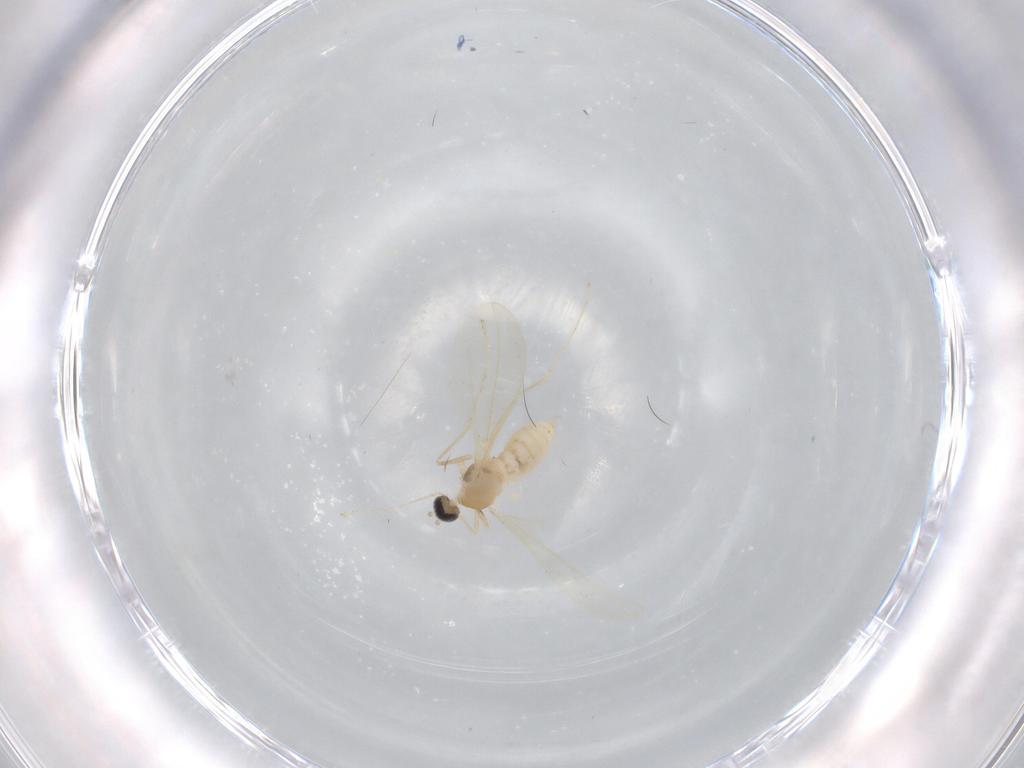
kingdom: Animalia
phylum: Arthropoda
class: Insecta
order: Diptera
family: Cecidomyiidae
